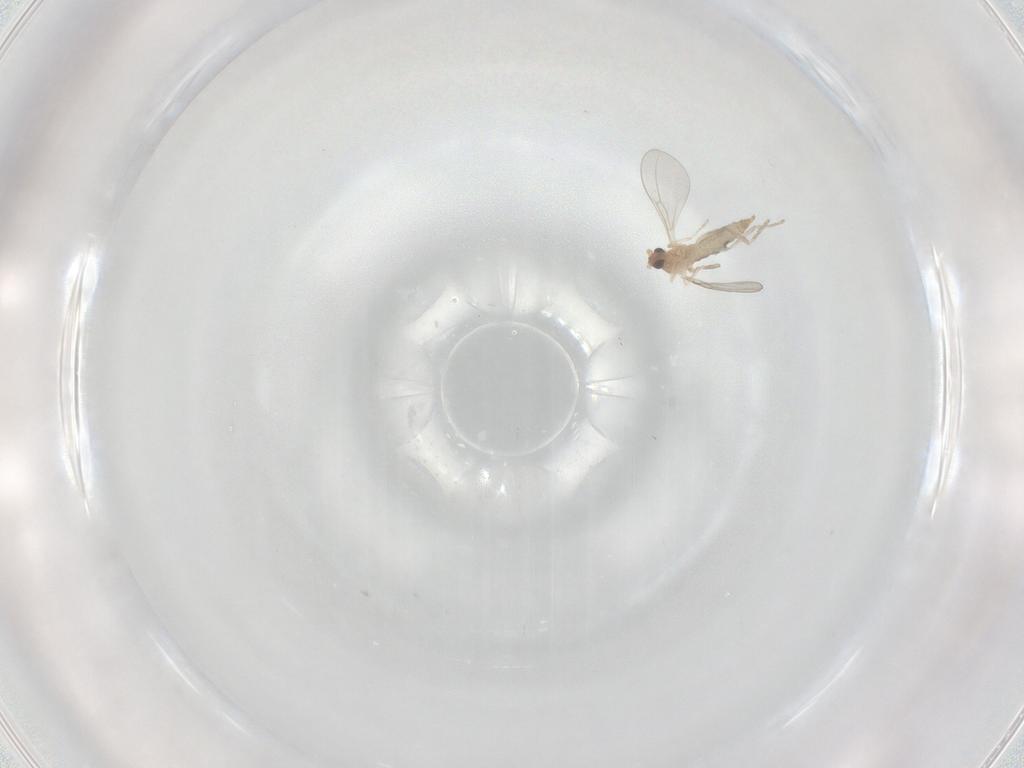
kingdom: Animalia
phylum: Arthropoda
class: Insecta
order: Diptera
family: Cecidomyiidae
